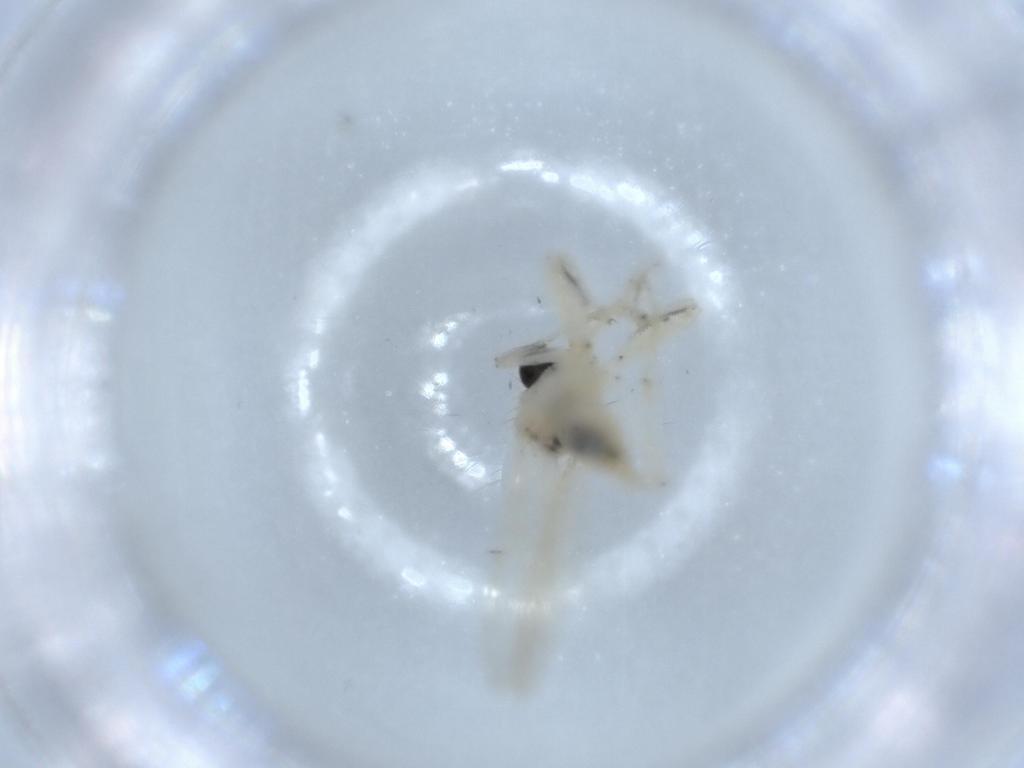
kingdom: Animalia
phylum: Arthropoda
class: Insecta
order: Diptera
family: Hybotidae
